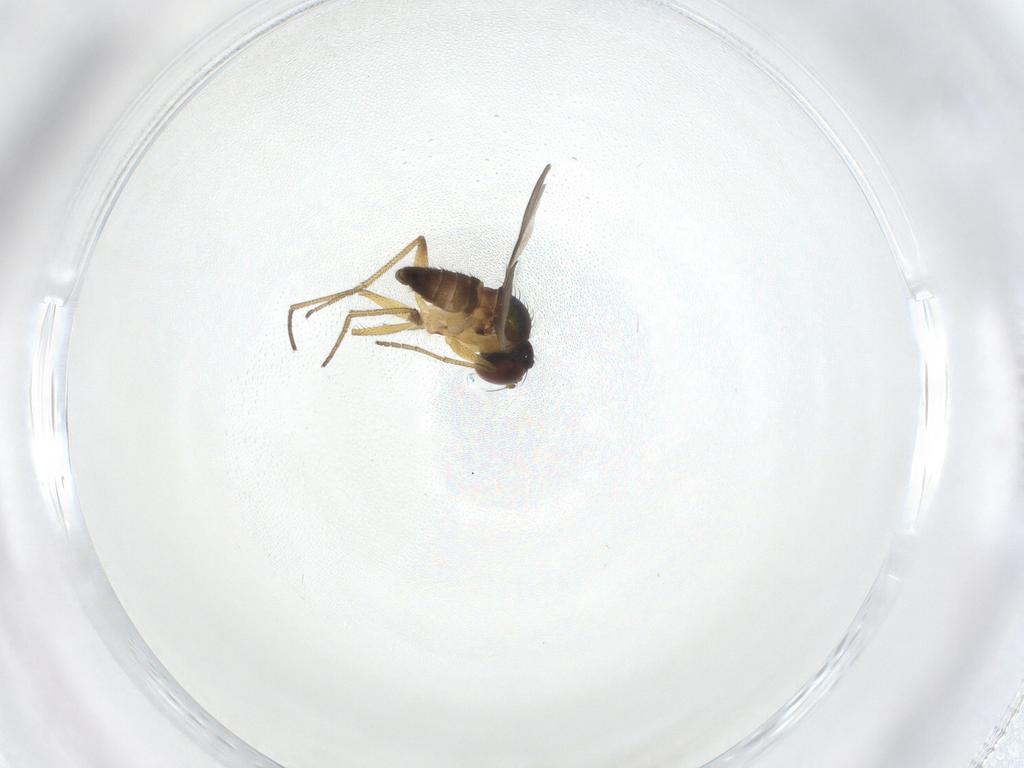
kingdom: Animalia
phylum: Arthropoda
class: Insecta
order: Diptera
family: Dolichopodidae
